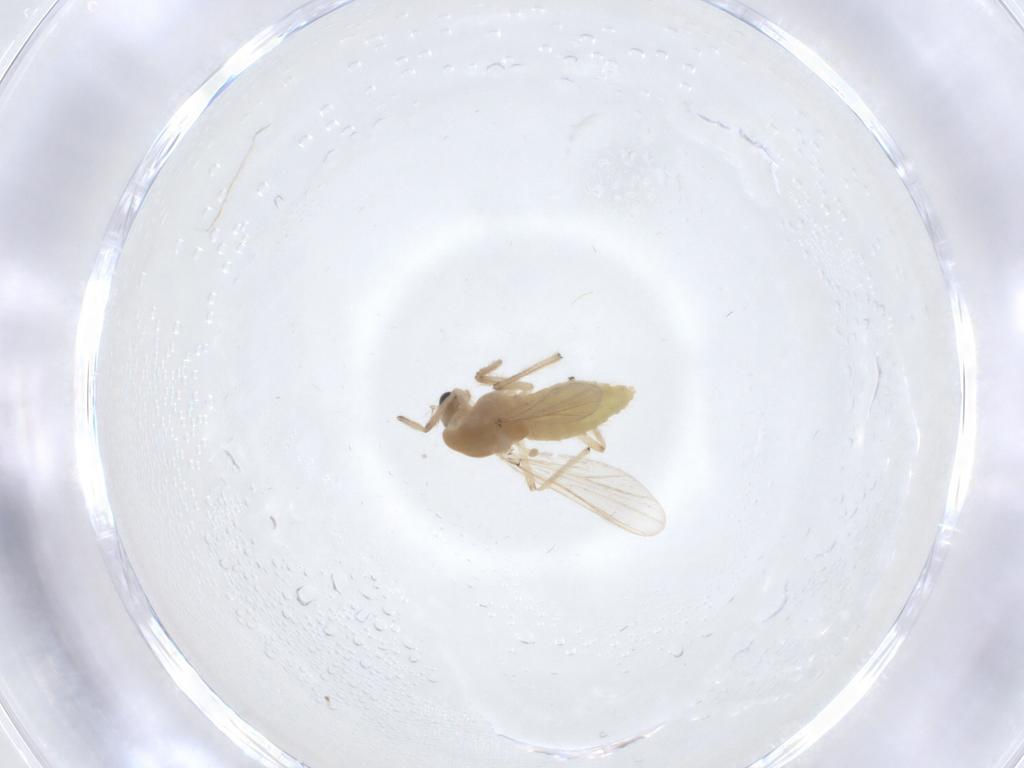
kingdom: Animalia
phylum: Arthropoda
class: Insecta
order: Diptera
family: Chironomidae
